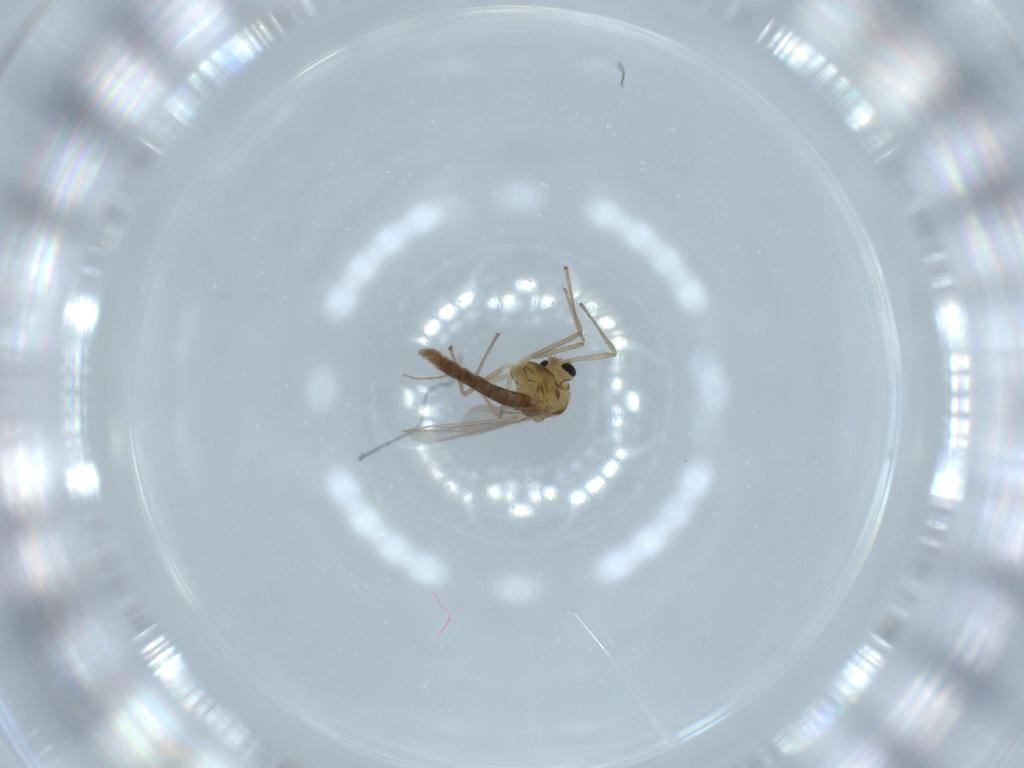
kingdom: Animalia
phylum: Arthropoda
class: Insecta
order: Diptera
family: Chironomidae
